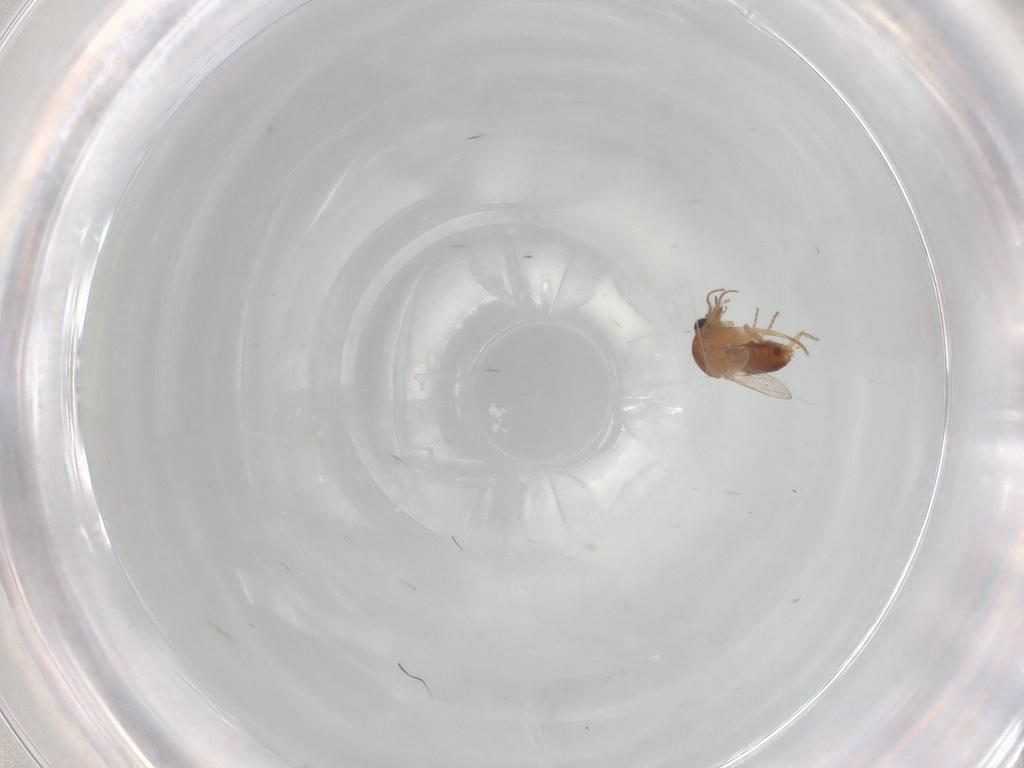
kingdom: Animalia
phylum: Arthropoda
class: Insecta
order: Diptera
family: Ceratopogonidae
